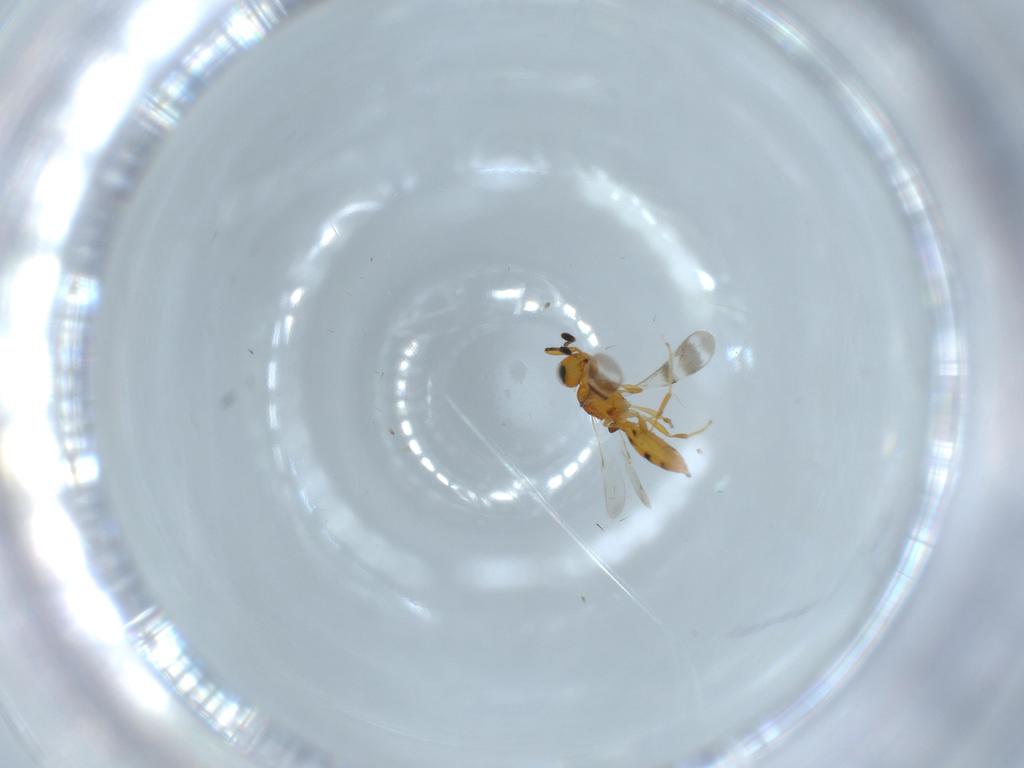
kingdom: Animalia
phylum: Arthropoda
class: Insecta
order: Hymenoptera
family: Scelionidae
